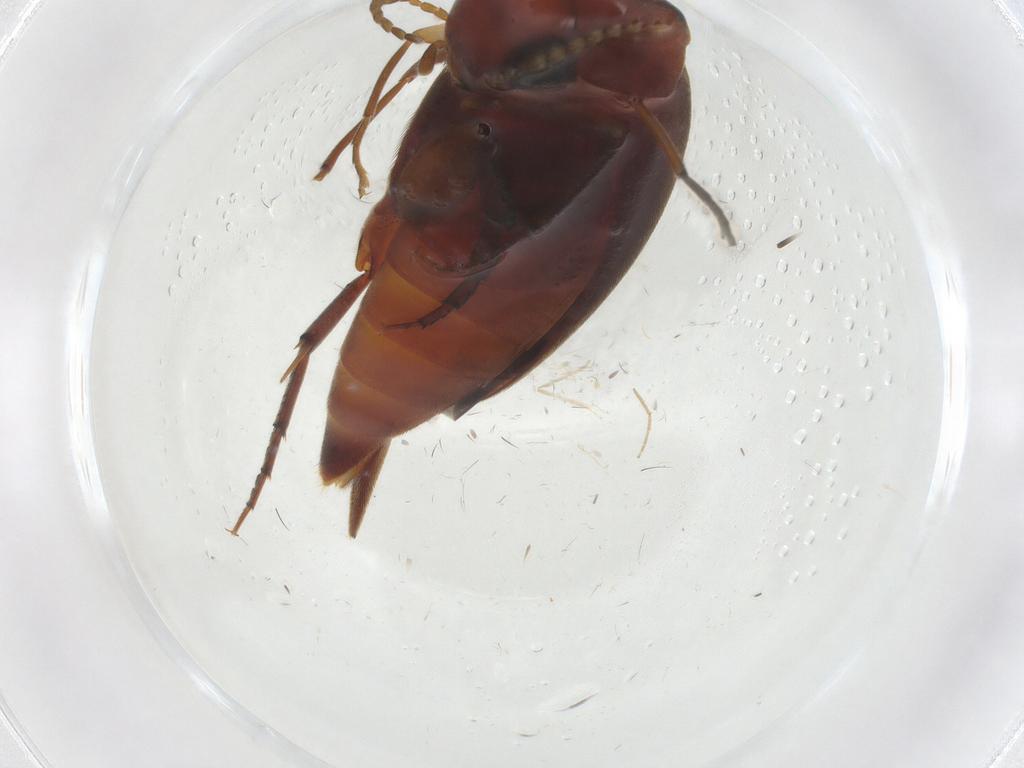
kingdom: Animalia
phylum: Arthropoda
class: Insecta
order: Coleoptera
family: Mordellidae
